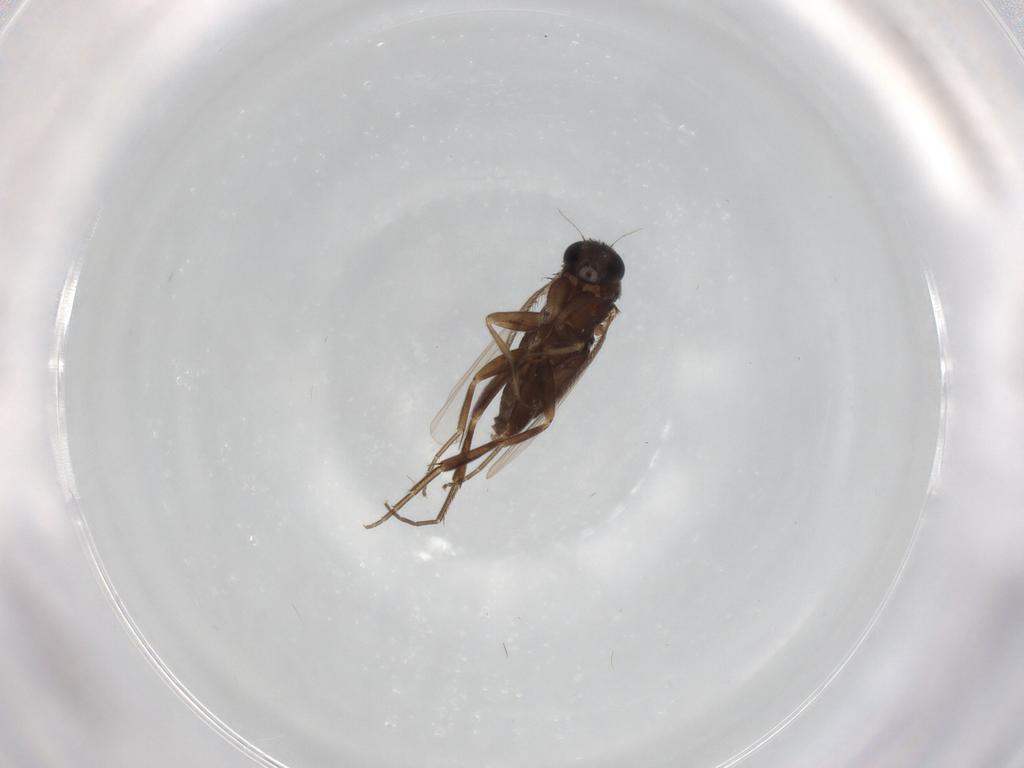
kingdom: Animalia
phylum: Arthropoda
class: Insecta
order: Diptera
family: Phoridae
